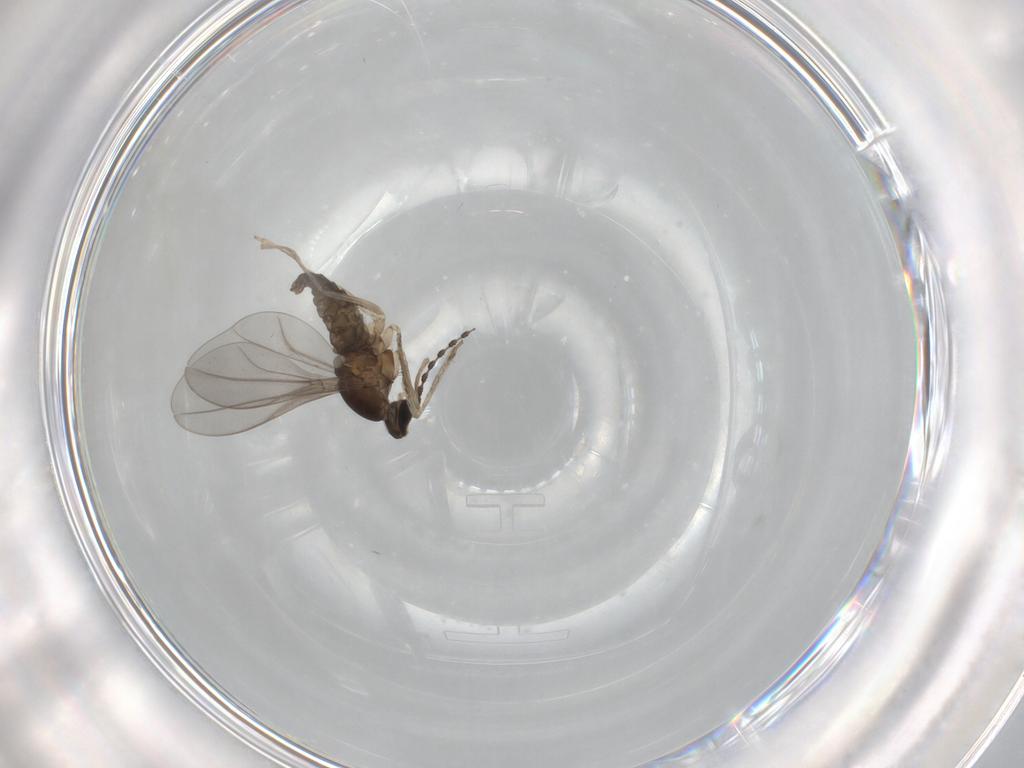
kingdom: Animalia
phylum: Arthropoda
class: Insecta
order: Diptera
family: Cecidomyiidae
